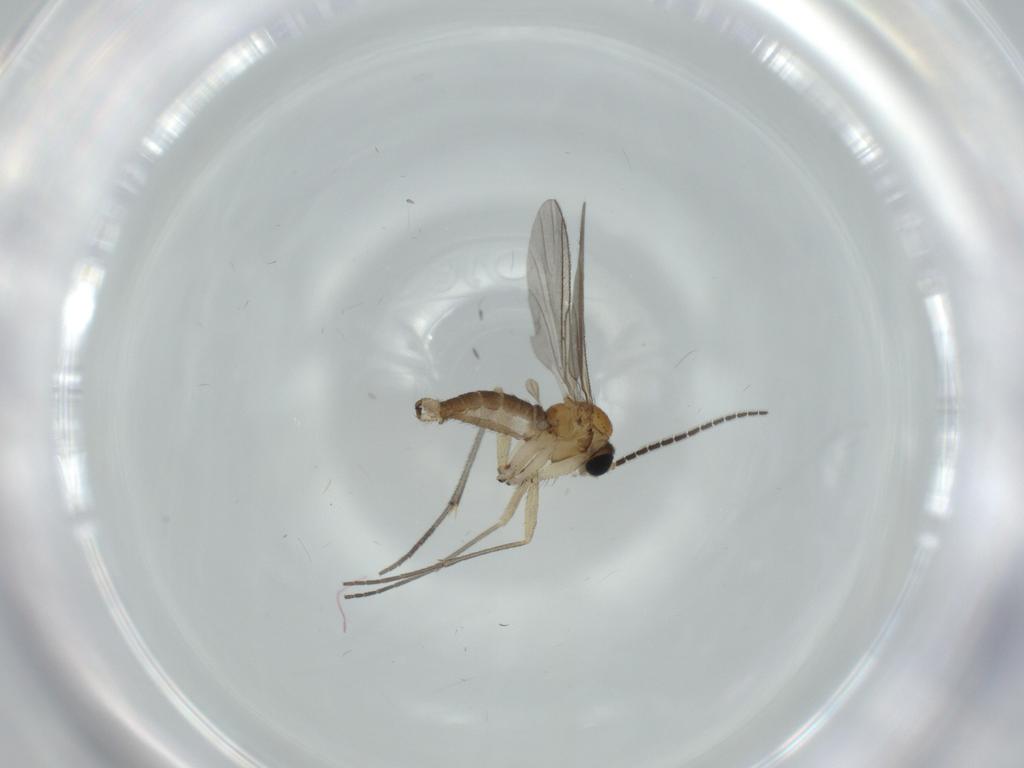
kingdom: Animalia
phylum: Arthropoda
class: Insecta
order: Diptera
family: Sciaridae
